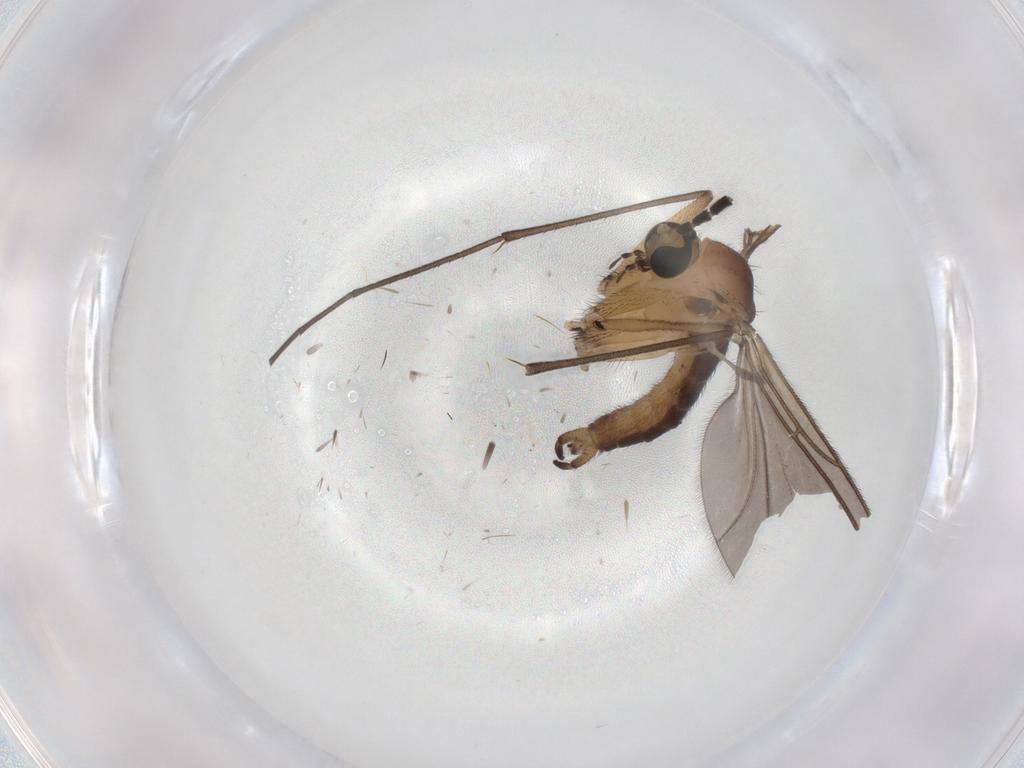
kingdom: Animalia
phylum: Arthropoda
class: Insecta
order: Diptera
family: Sciaridae
